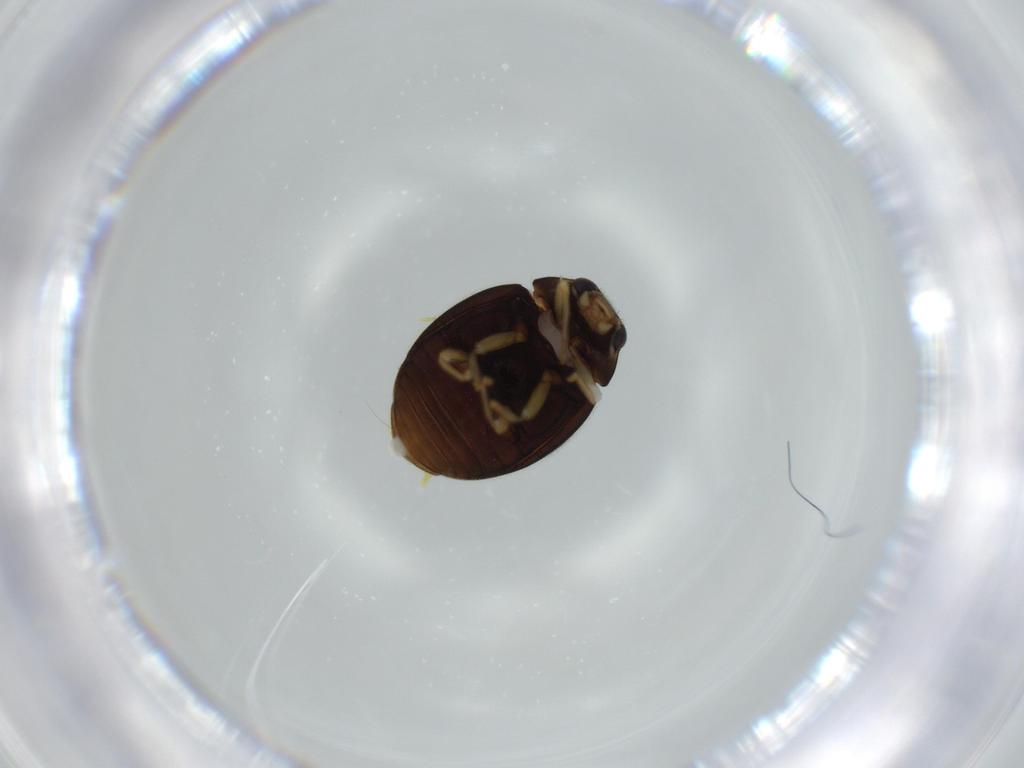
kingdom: Animalia
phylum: Arthropoda
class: Insecta
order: Coleoptera
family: Coccinellidae
